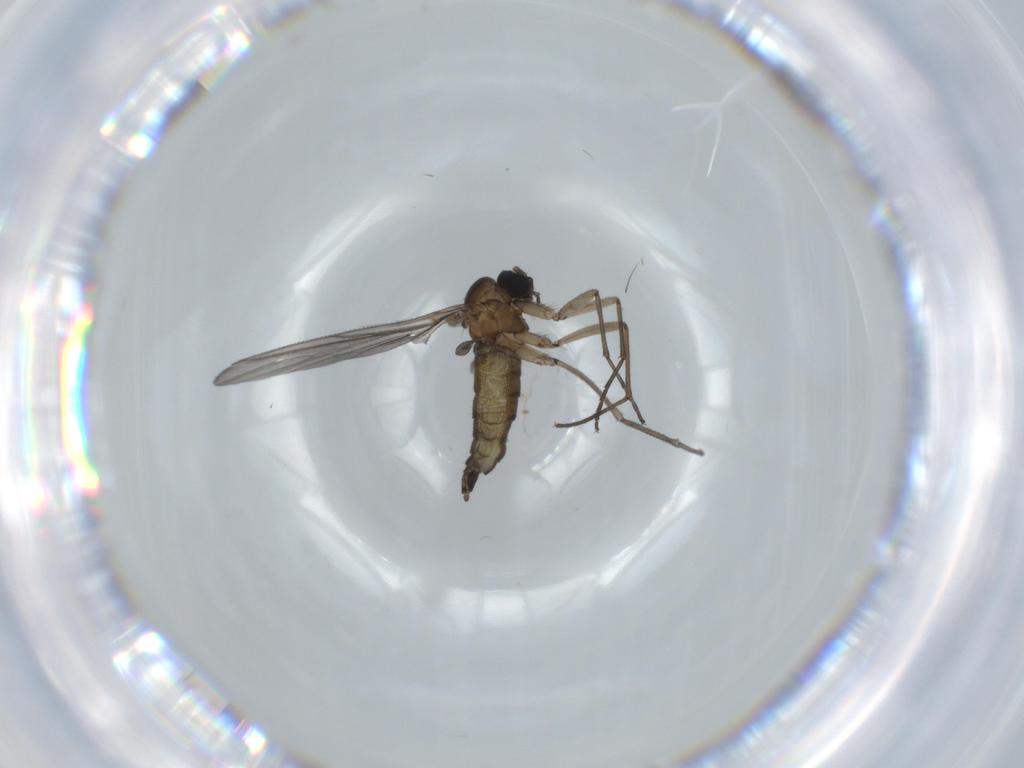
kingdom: Animalia
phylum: Arthropoda
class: Insecta
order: Diptera
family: Sciaridae
